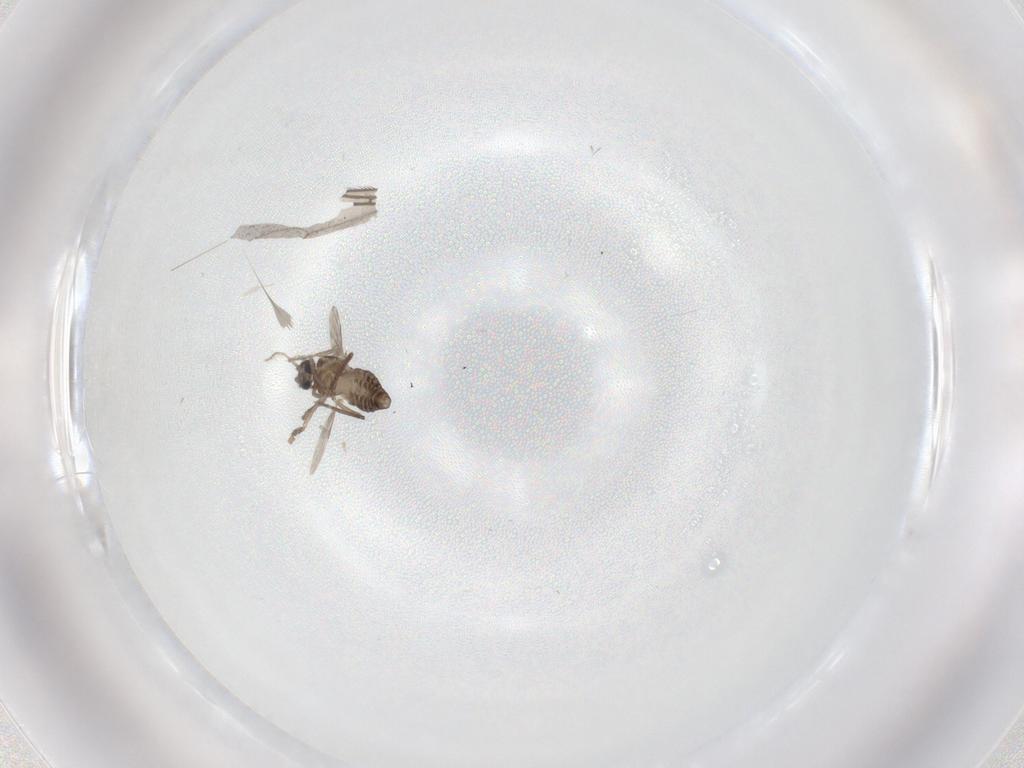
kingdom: Animalia
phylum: Arthropoda
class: Insecta
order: Diptera
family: Ceratopogonidae
